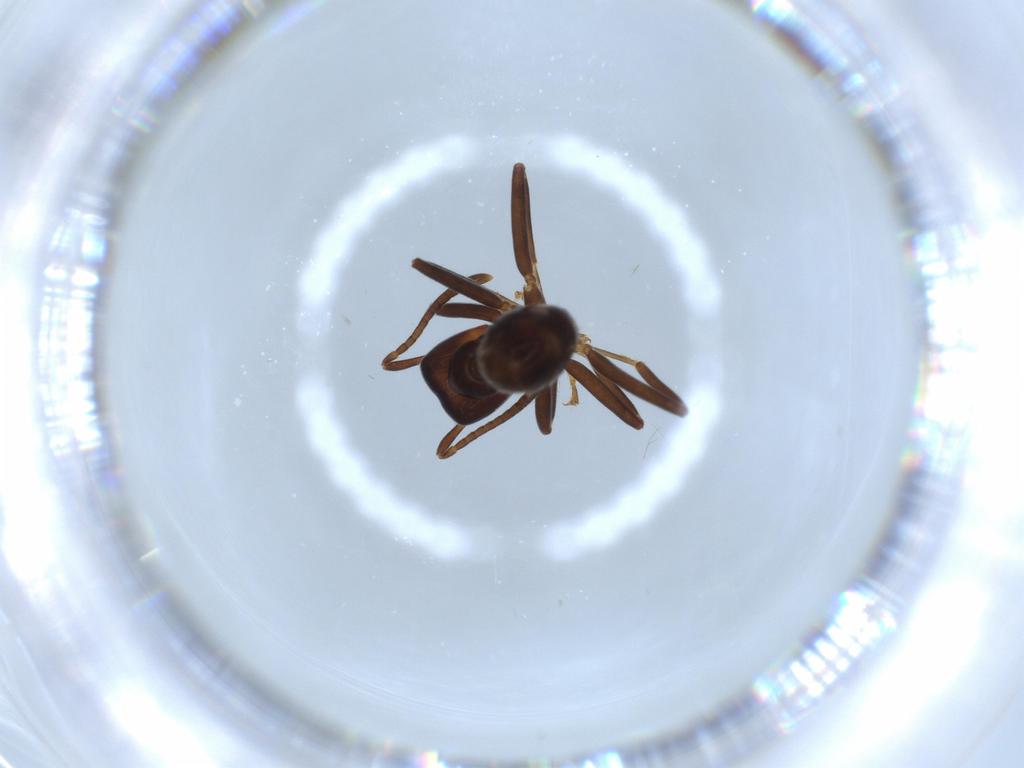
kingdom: Animalia
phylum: Arthropoda
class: Insecta
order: Hymenoptera
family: Formicidae
